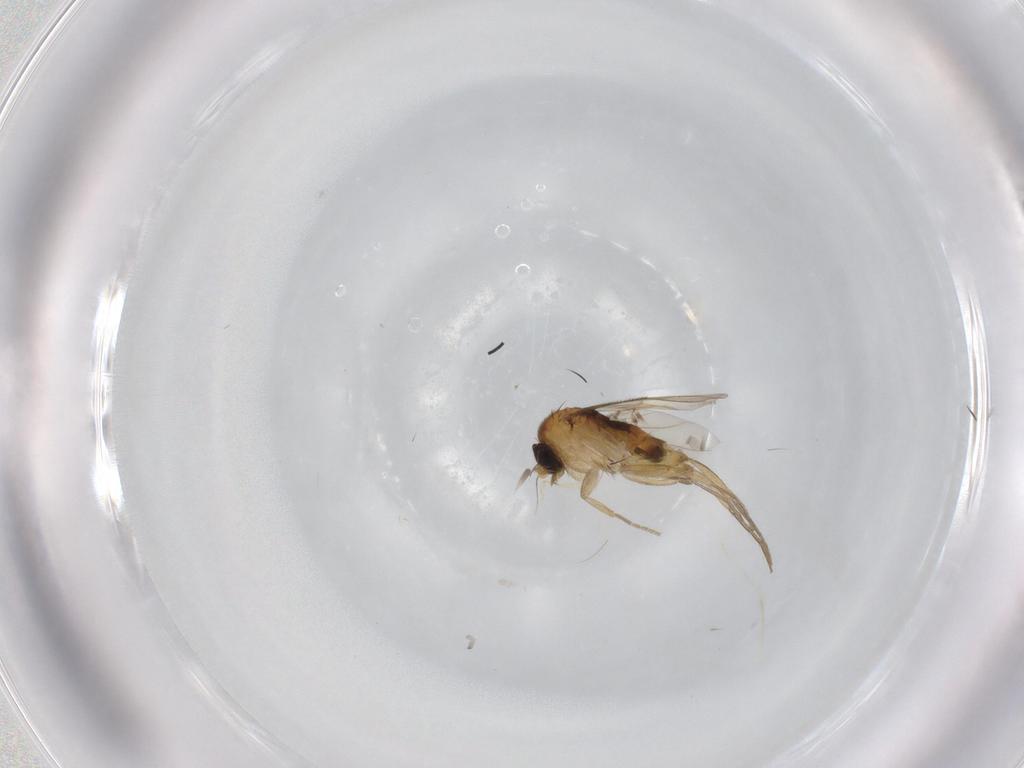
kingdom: Animalia
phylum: Arthropoda
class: Insecta
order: Diptera
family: Phoridae
